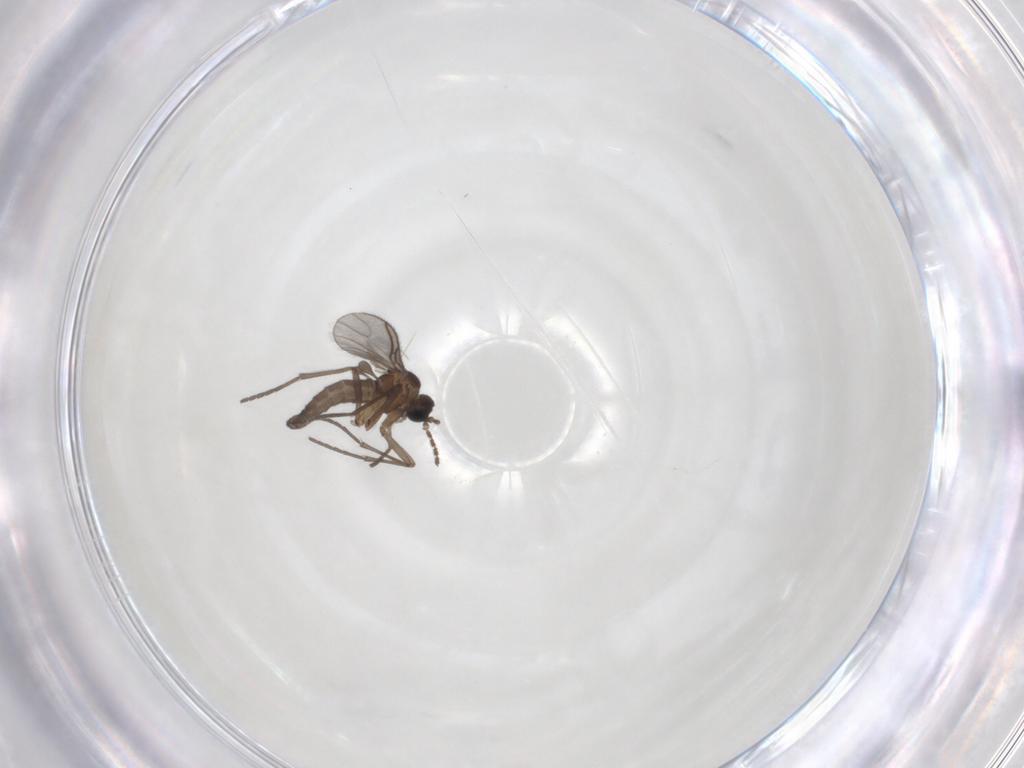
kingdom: Animalia
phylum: Arthropoda
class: Insecta
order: Diptera
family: Sciaridae
